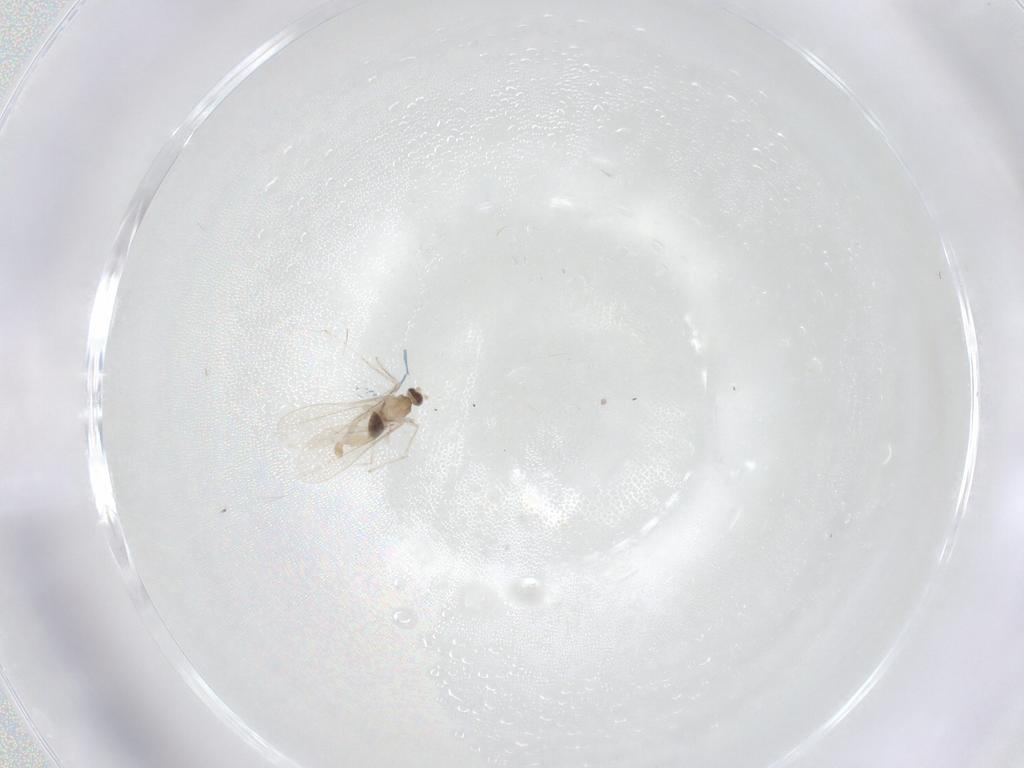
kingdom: Animalia
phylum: Arthropoda
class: Insecta
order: Diptera
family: Cecidomyiidae
